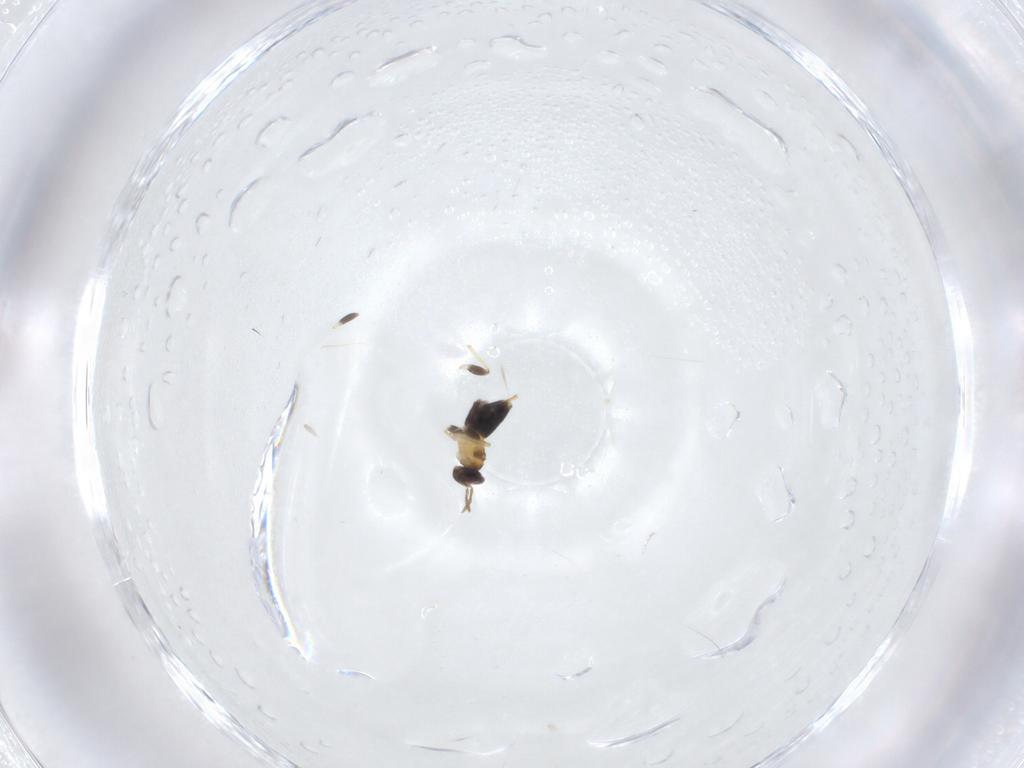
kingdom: Animalia
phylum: Arthropoda
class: Insecta
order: Hymenoptera
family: Aphelinidae
